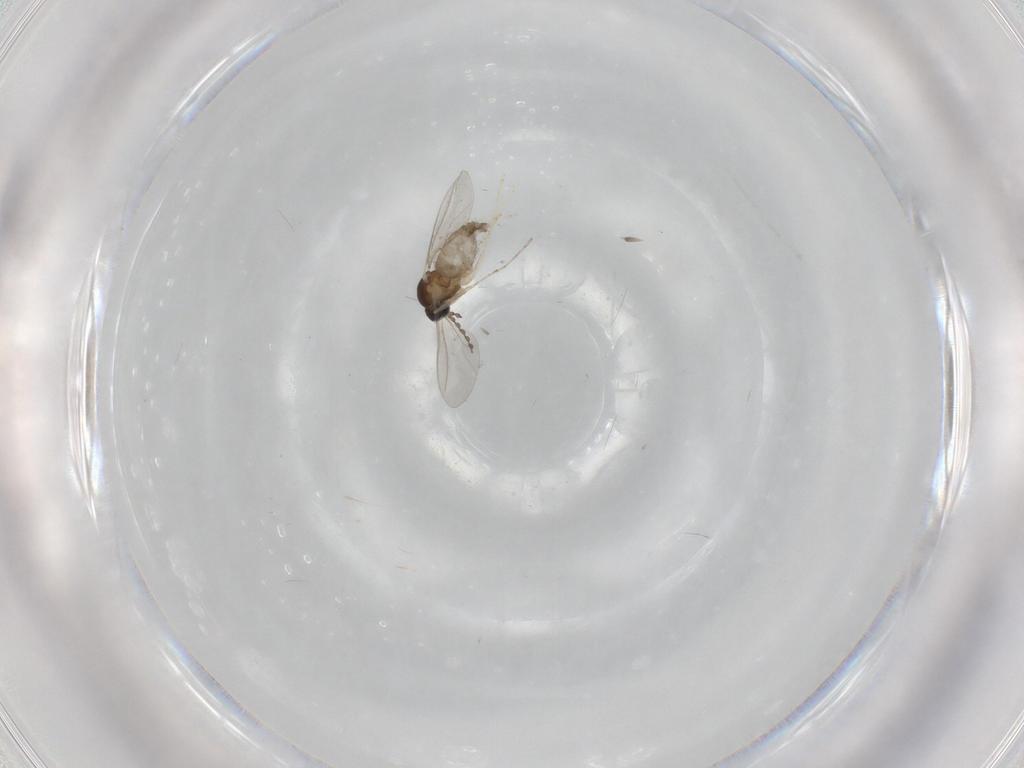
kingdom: Animalia
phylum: Arthropoda
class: Insecta
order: Diptera
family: Cecidomyiidae
